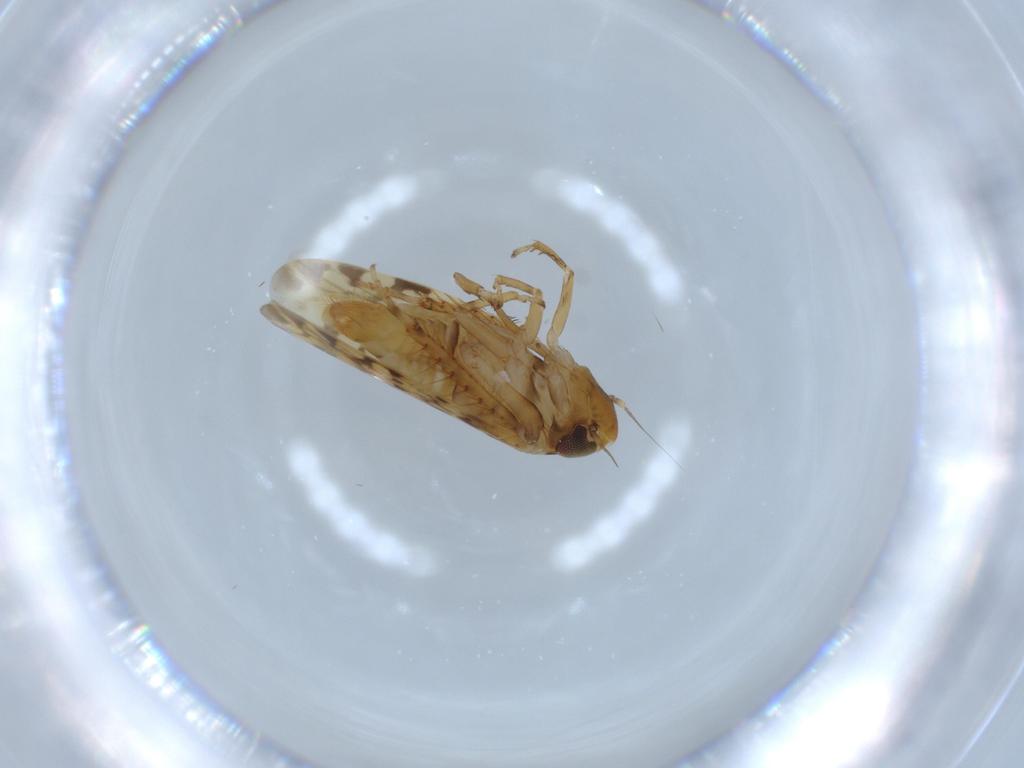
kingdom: Animalia
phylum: Arthropoda
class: Insecta
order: Hemiptera
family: Cicadellidae
